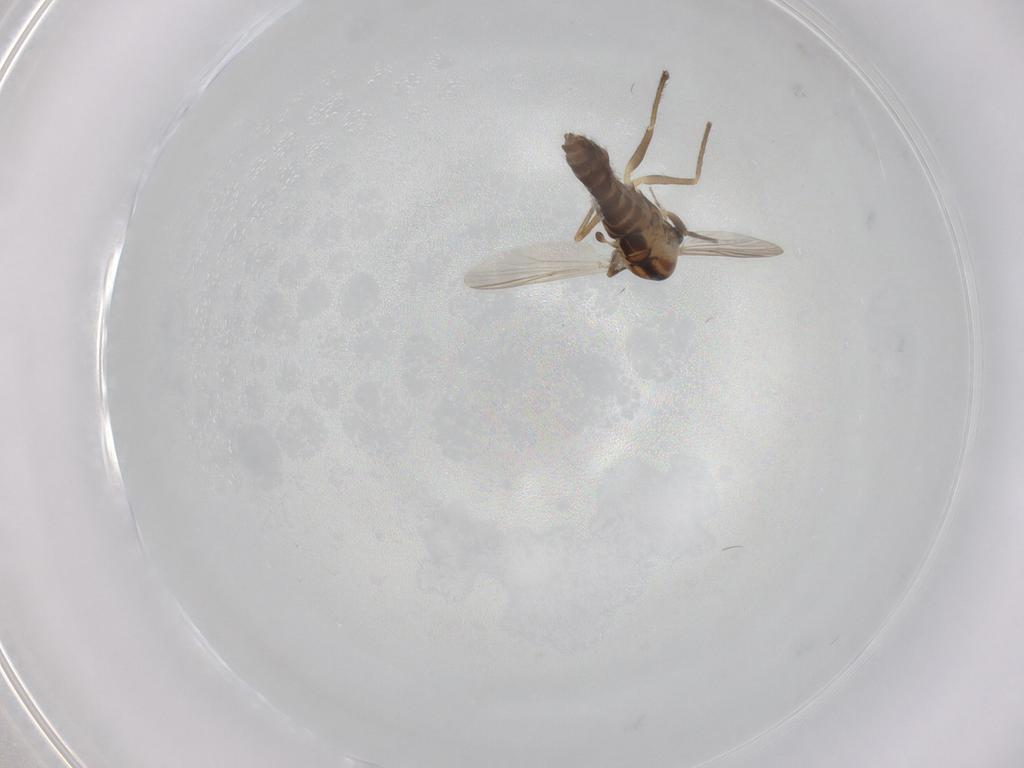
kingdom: Animalia
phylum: Arthropoda
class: Insecta
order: Diptera
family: Chironomidae
